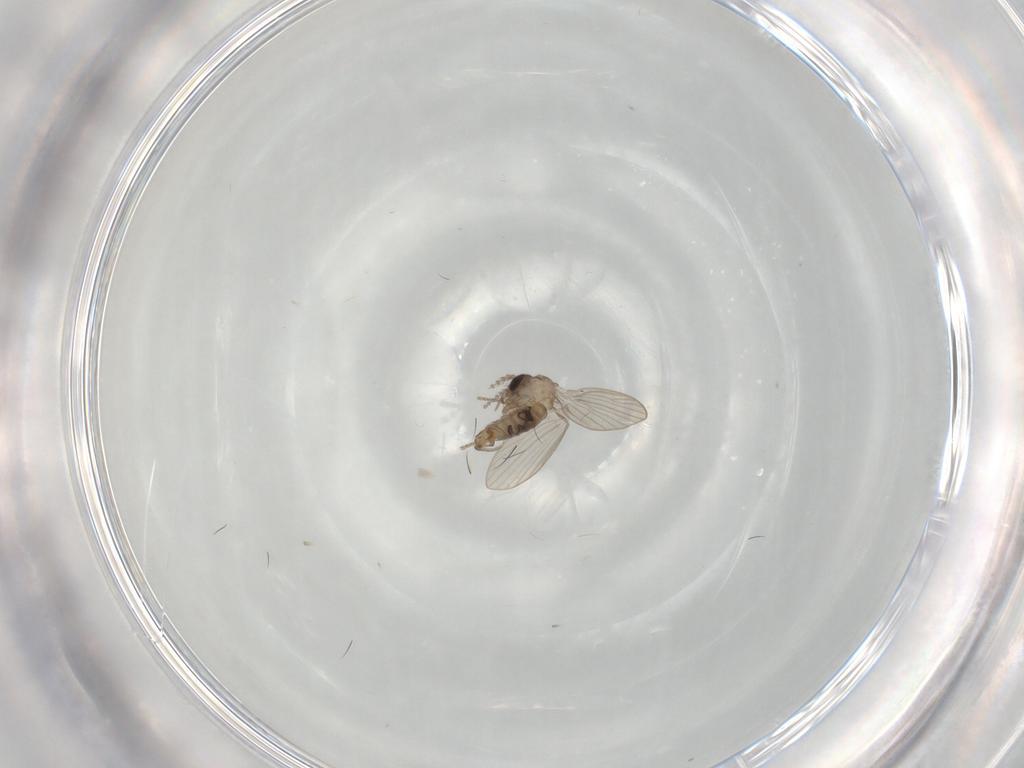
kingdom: Animalia
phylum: Arthropoda
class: Insecta
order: Diptera
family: Psychodidae
